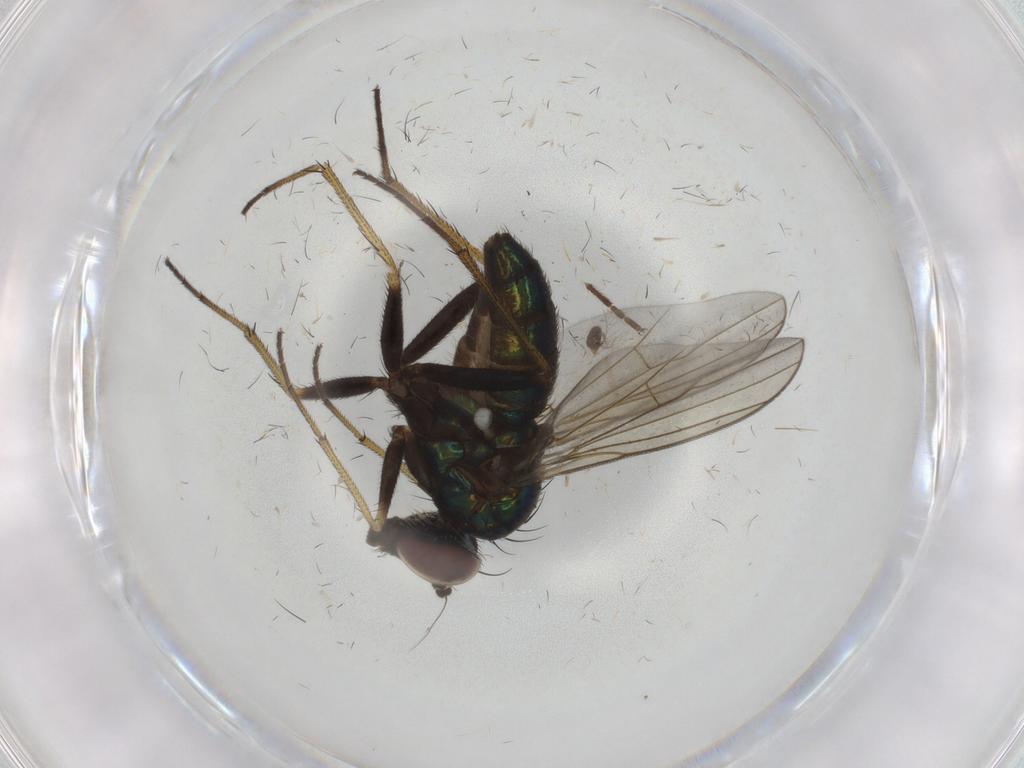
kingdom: Animalia
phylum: Arthropoda
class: Insecta
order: Diptera
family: Dolichopodidae
